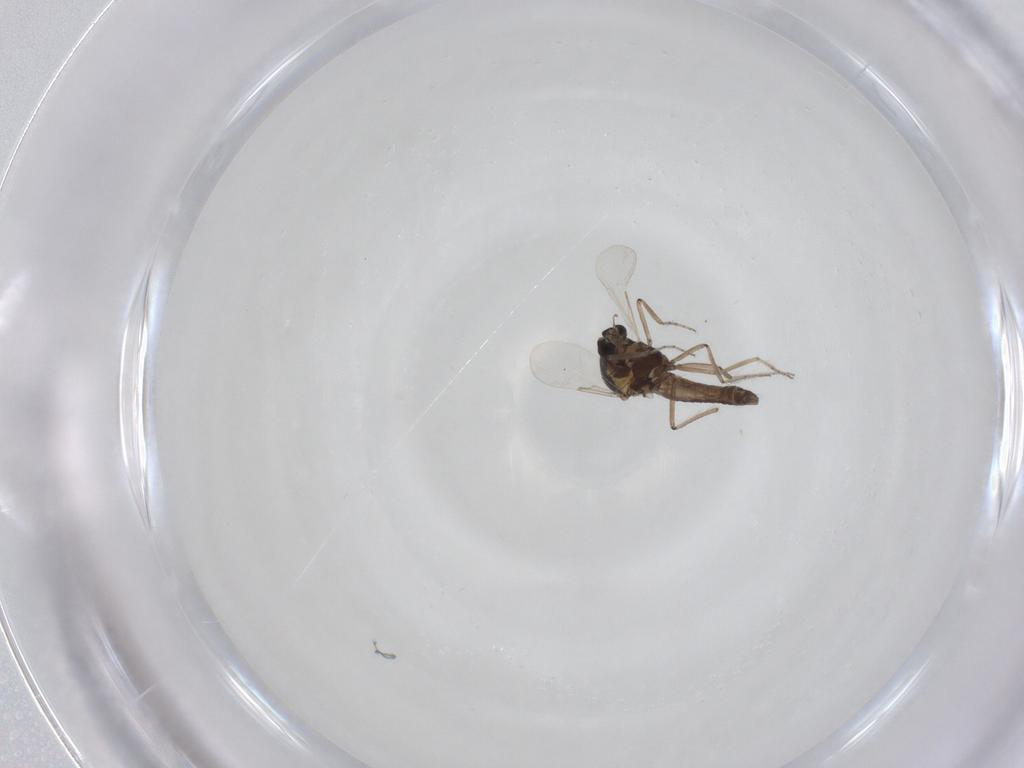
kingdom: Animalia
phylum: Arthropoda
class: Insecta
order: Diptera
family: Ceratopogonidae
